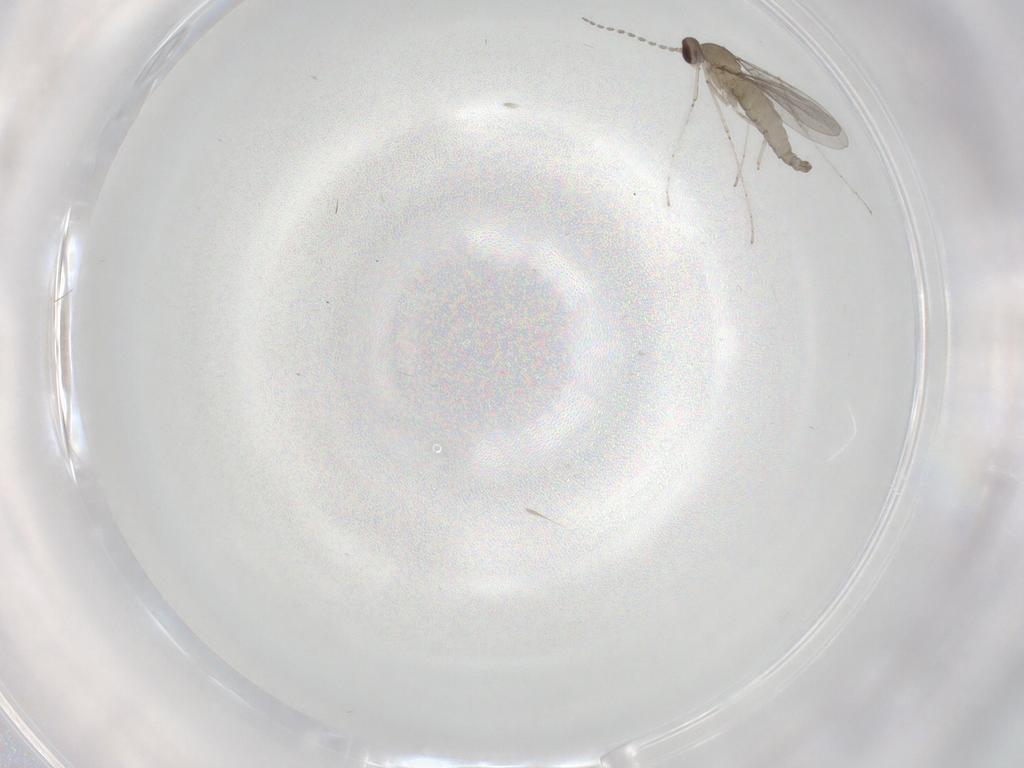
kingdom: Animalia
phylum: Arthropoda
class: Insecta
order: Diptera
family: Cecidomyiidae
